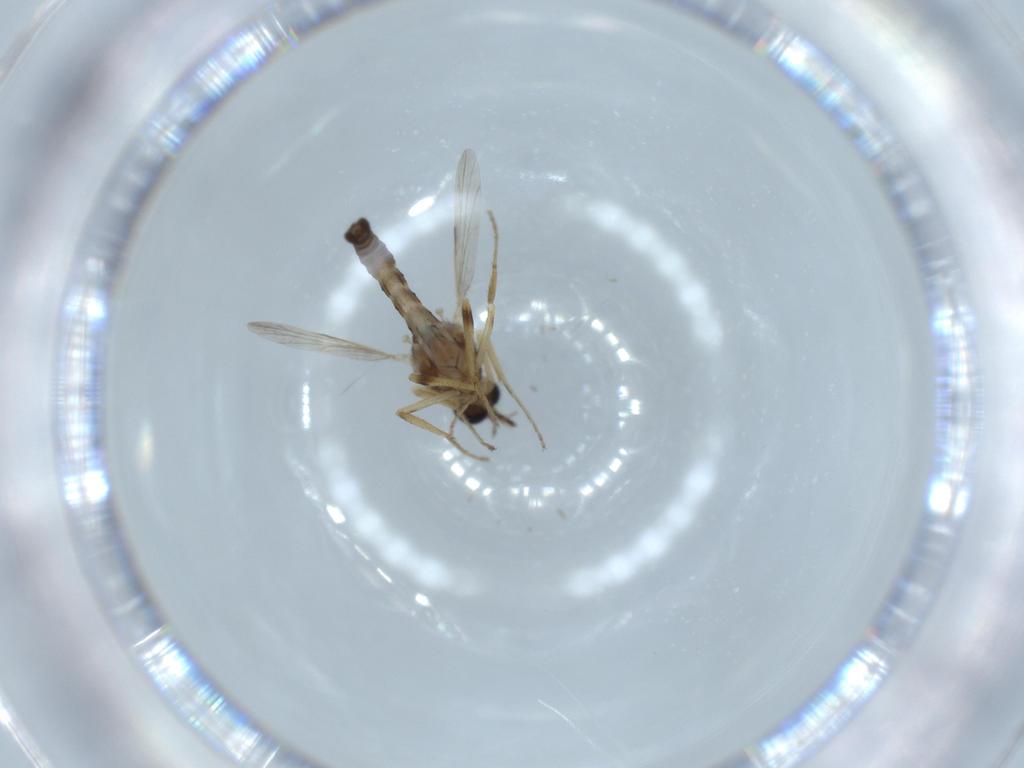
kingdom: Animalia
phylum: Arthropoda
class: Insecta
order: Diptera
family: Ceratopogonidae
